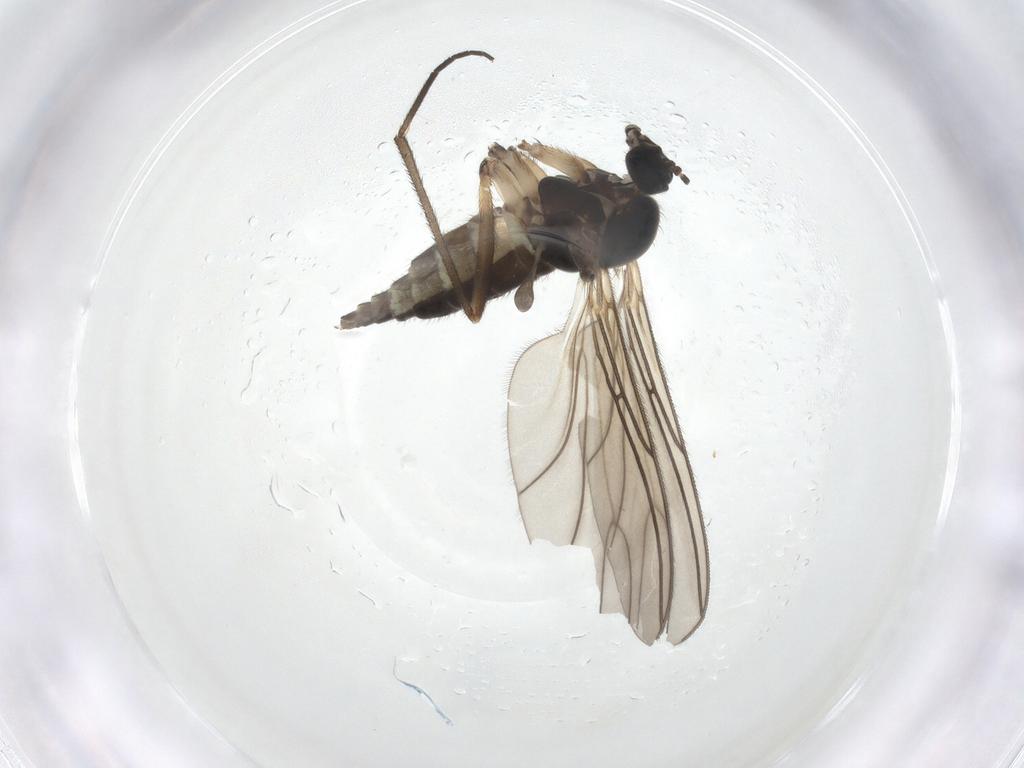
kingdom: Animalia
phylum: Arthropoda
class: Insecta
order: Diptera
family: Sciaridae
